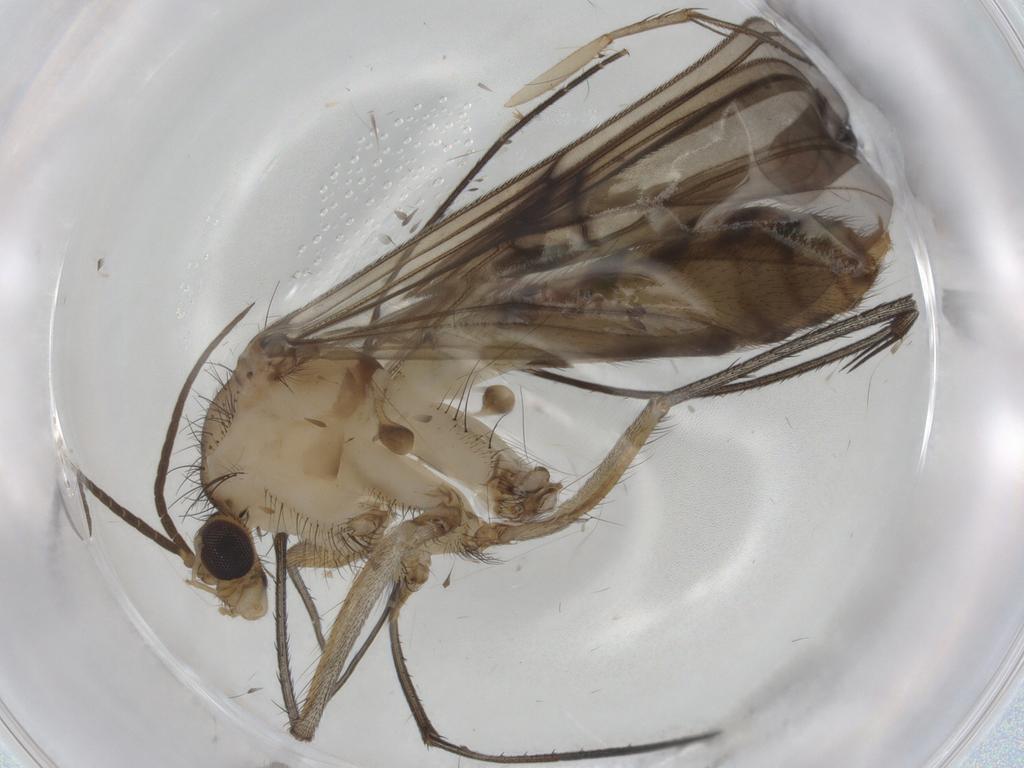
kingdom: Animalia
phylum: Arthropoda
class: Insecta
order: Diptera
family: Mycetophilidae
